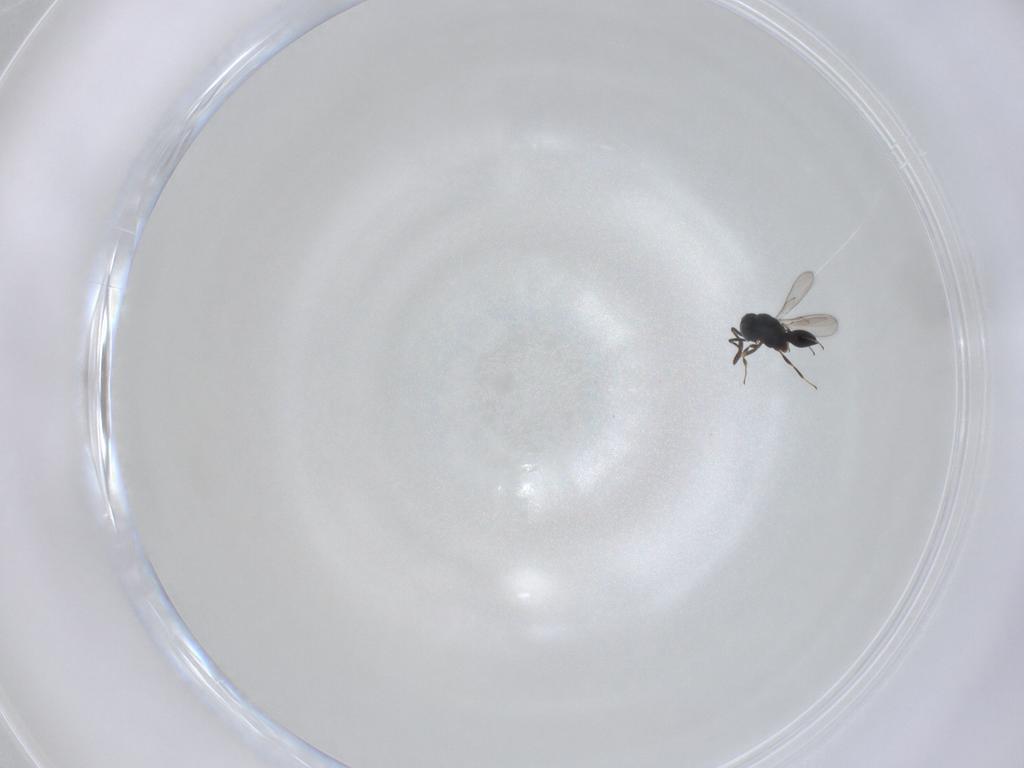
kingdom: Animalia
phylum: Arthropoda
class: Insecta
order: Hymenoptera
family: Scelionidae
